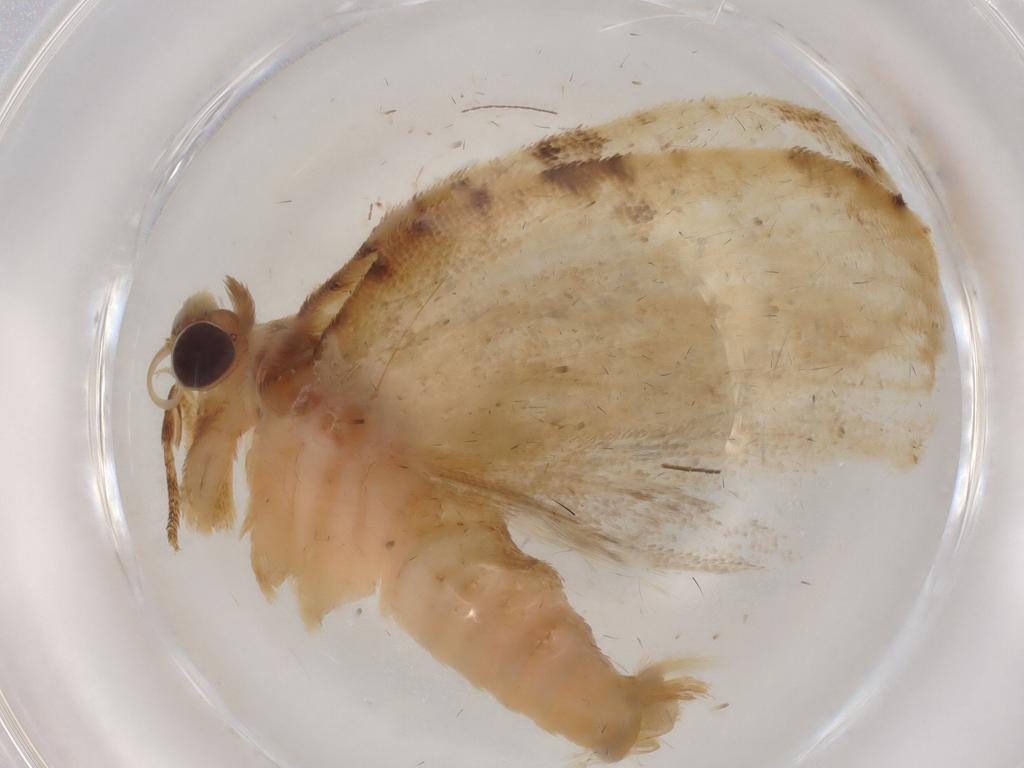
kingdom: Animalia
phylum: Arthropoda
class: Insecta
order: Lepidoptera
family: Tortricidae
